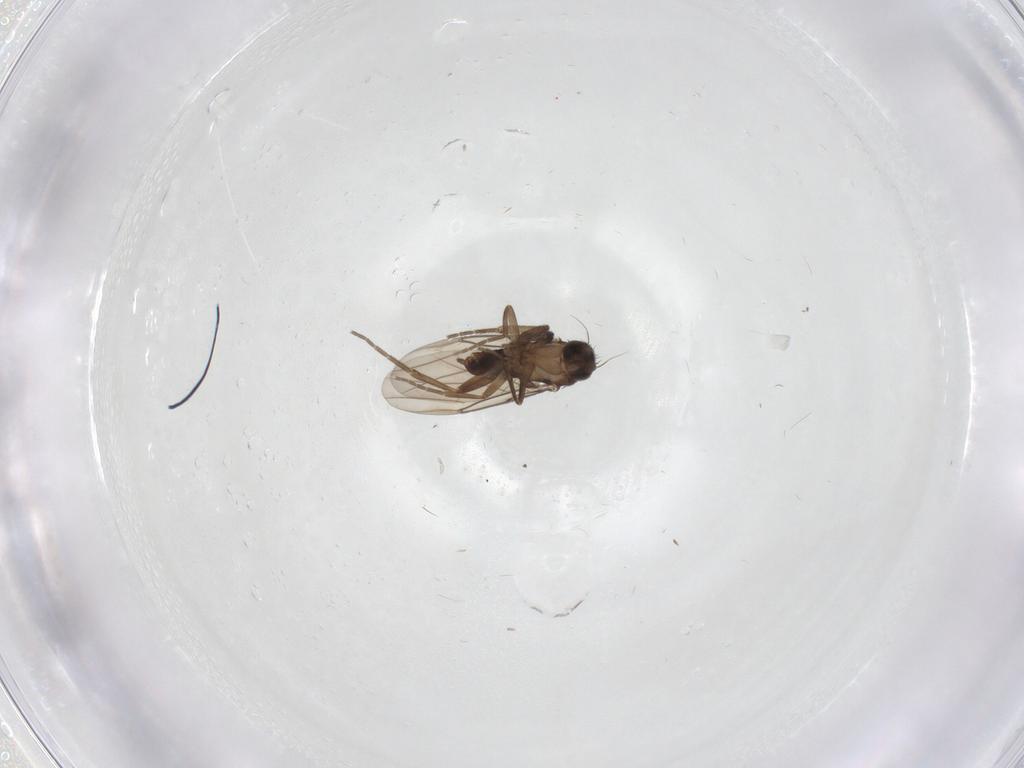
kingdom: Animalia
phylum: Arthropoda
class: Insecta
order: Diptera
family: Phoridae
